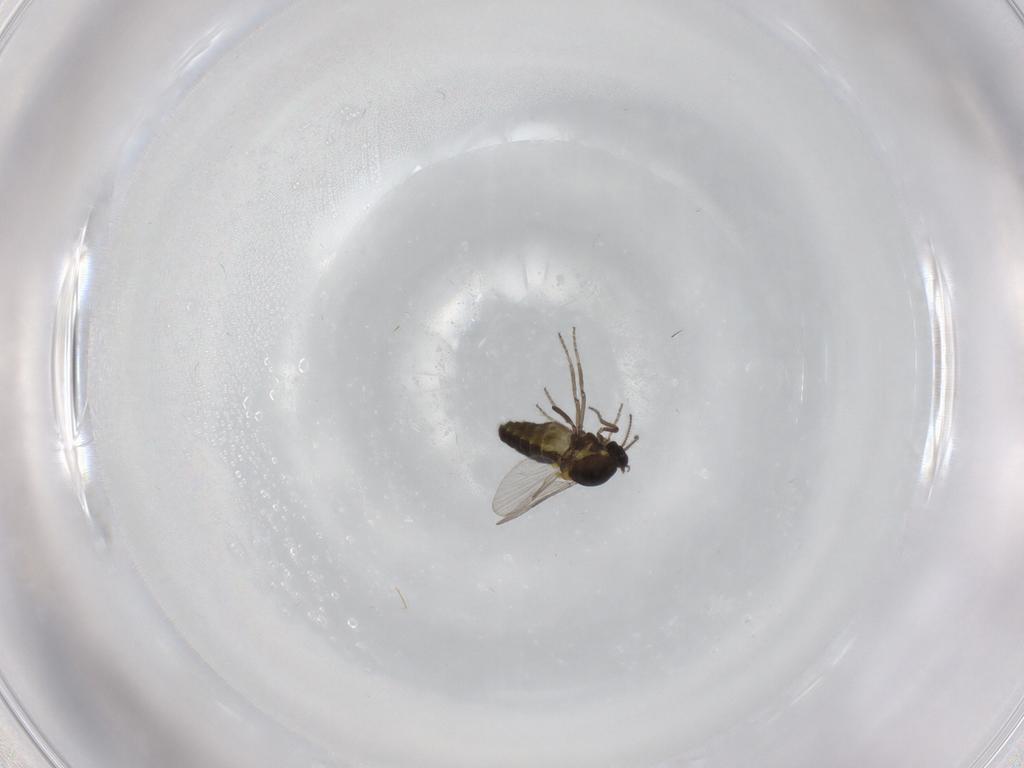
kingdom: Animalia
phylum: Arthropoda
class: Insecta
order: Diptera
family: Ceratopogonidae
